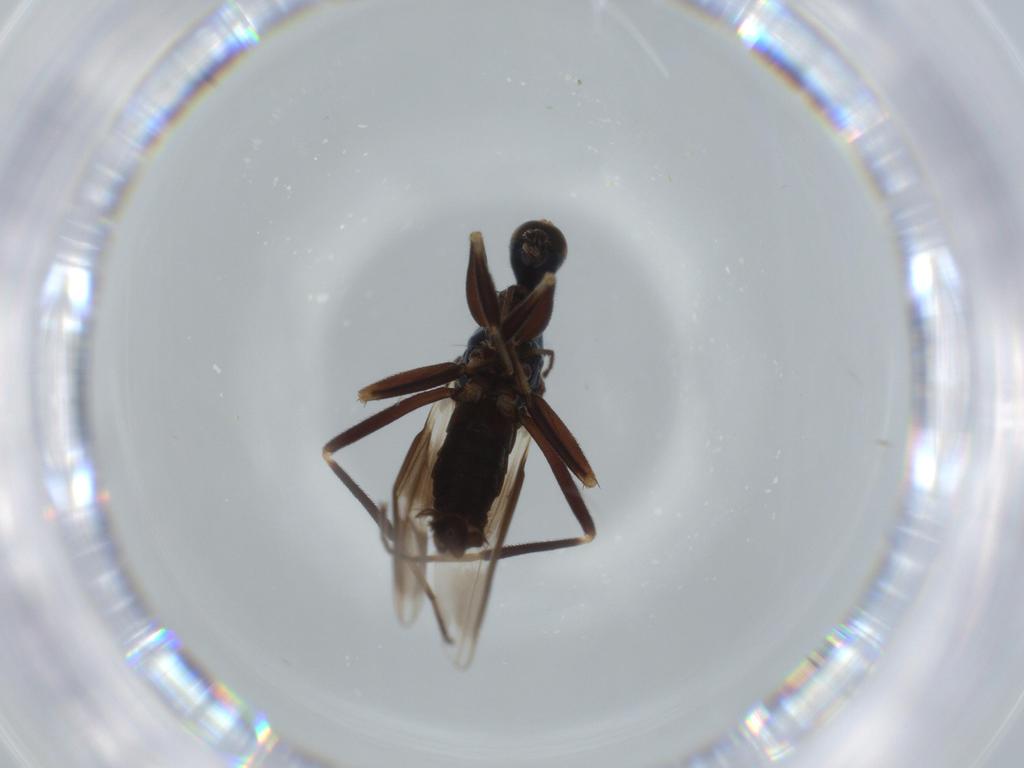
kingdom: Animalia
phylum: Arthropoda
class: Insecta
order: Diptera
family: Hybotidae
